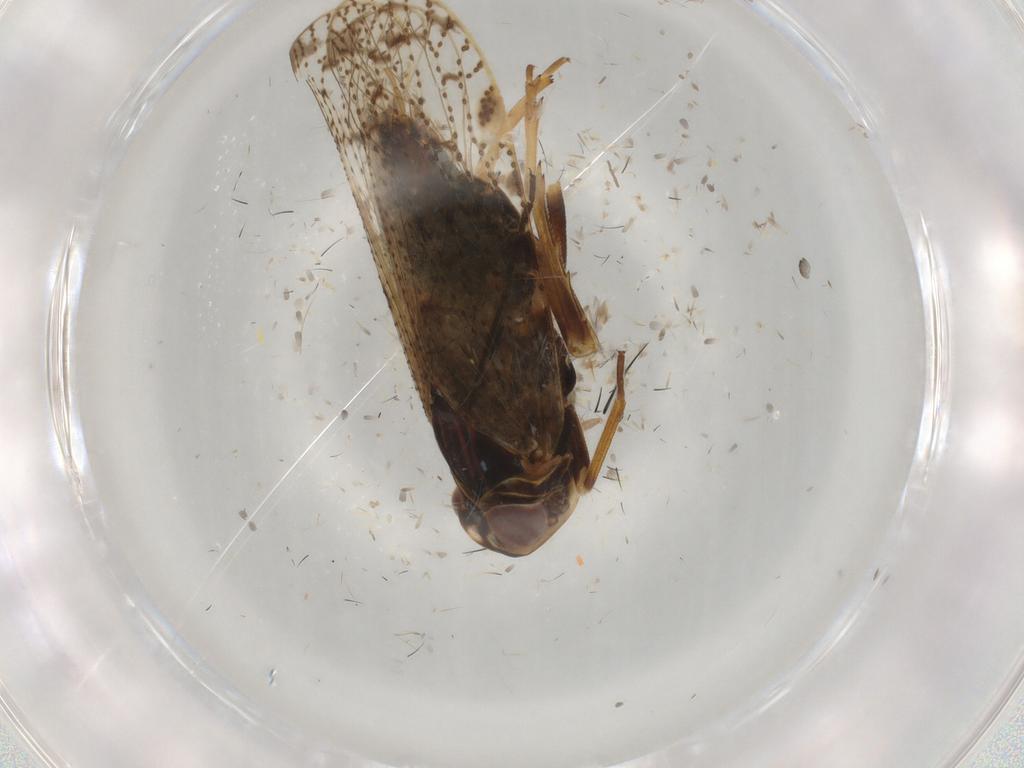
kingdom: Animalia
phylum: Arthropoda
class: Insecta
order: Hemiptera
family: Cixiidae
